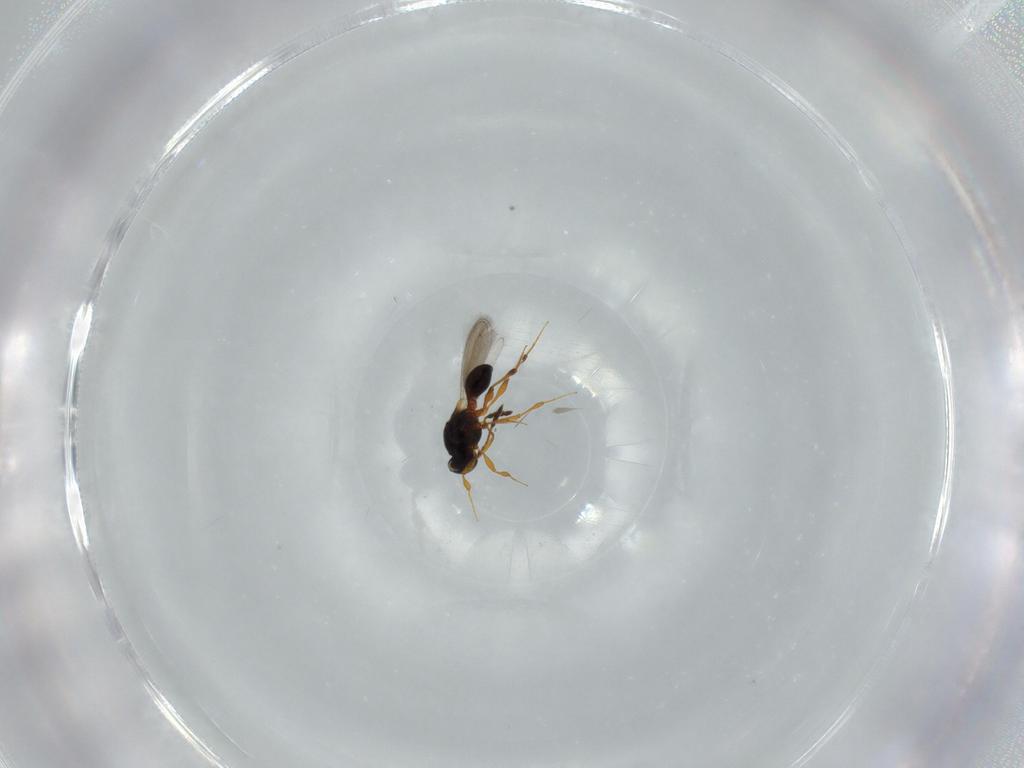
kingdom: Animalia
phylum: Arthropoda
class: Insecta
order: Hymenoptera
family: Platygastridae
